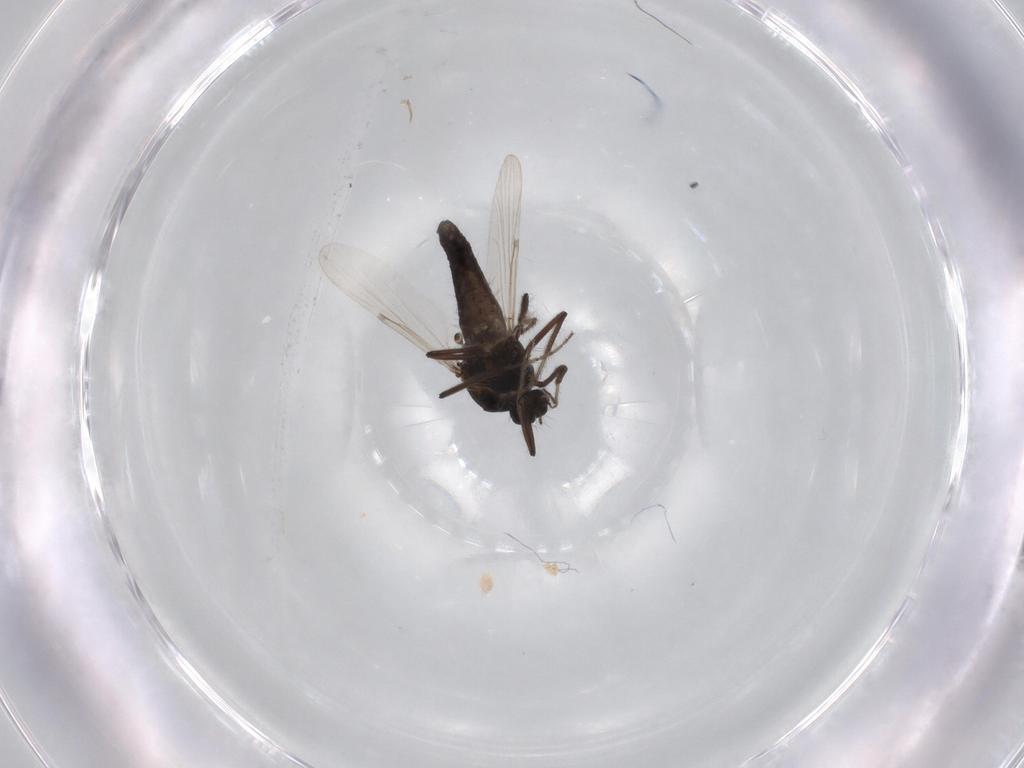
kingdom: Animalia
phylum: Arthropoda
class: Insecta
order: Diptera
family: Chironomidae
